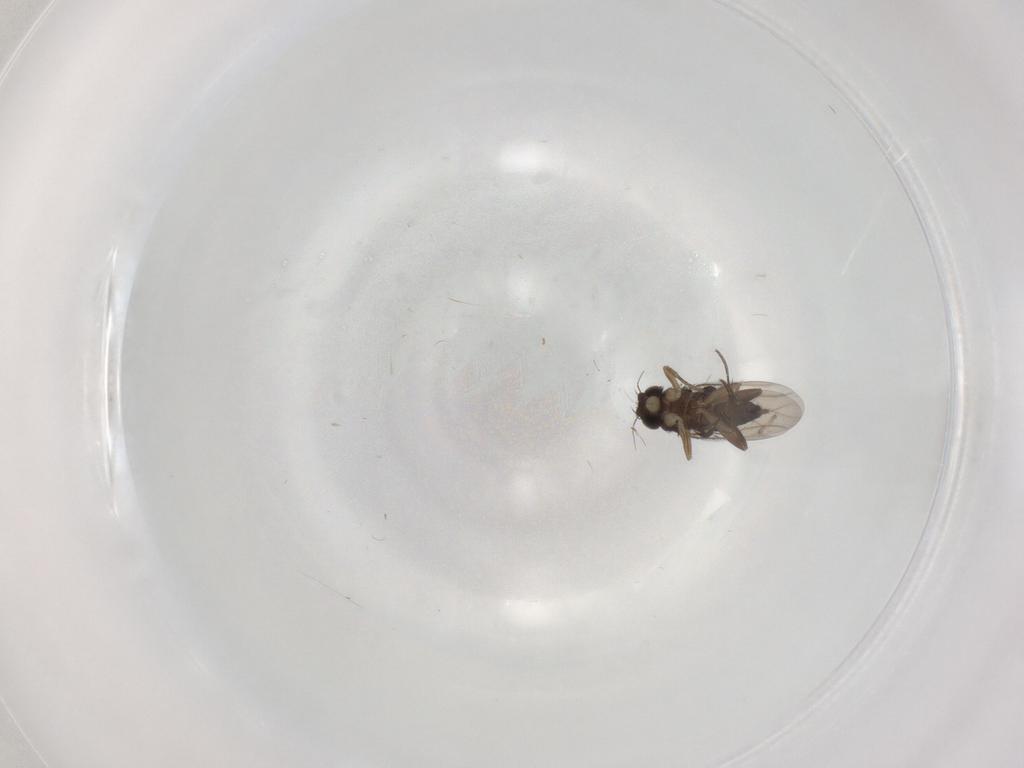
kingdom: Animalia
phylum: Arthropoda
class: Insecta
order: Diptera
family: Chironomidae
